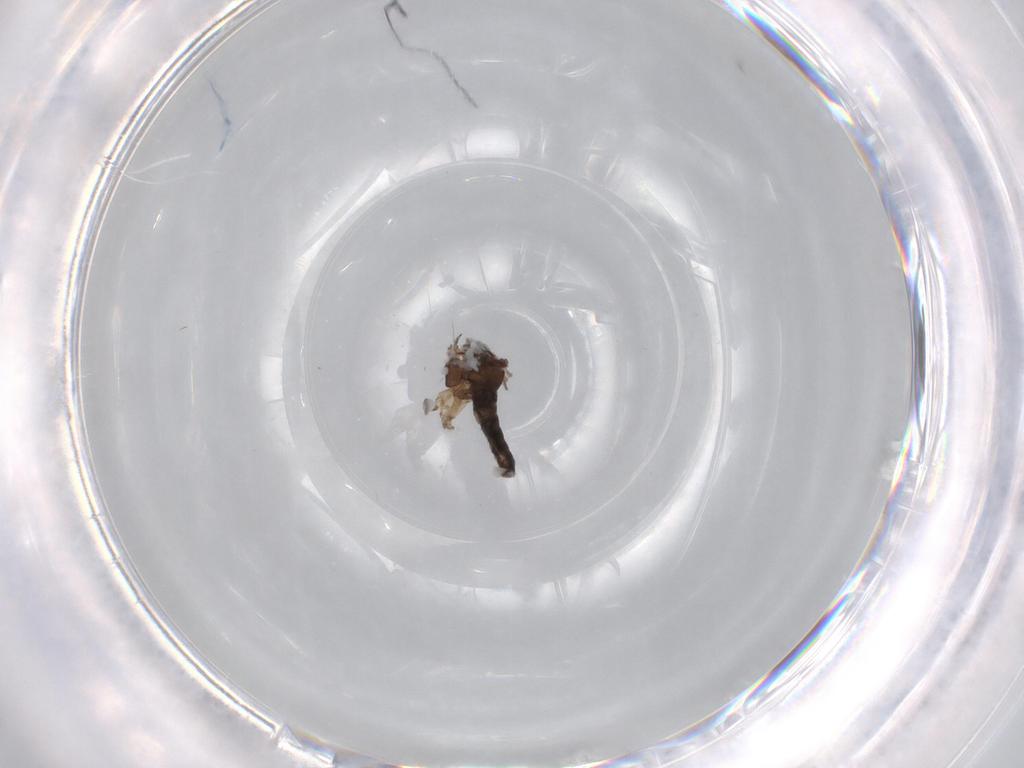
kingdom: Animalia
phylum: Arthropoda
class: Insecta
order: Diptera
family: Sciaridae
